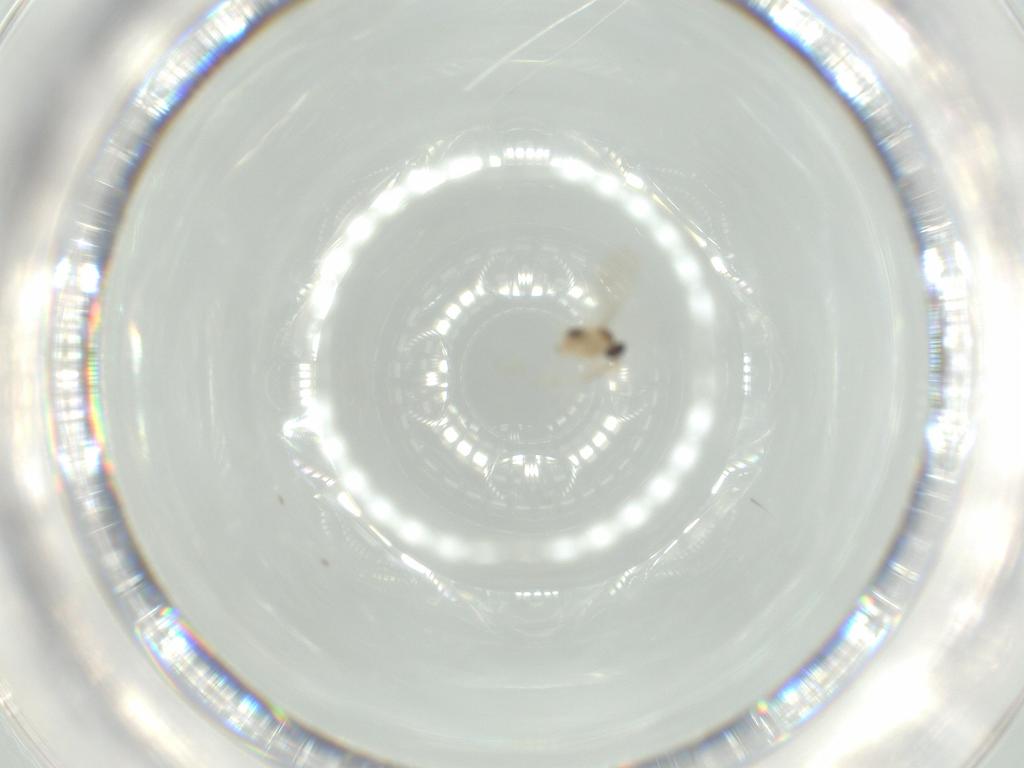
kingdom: Animalia
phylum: Arthropoda
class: Insecta
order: Diptera
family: Cecidomyiidae
